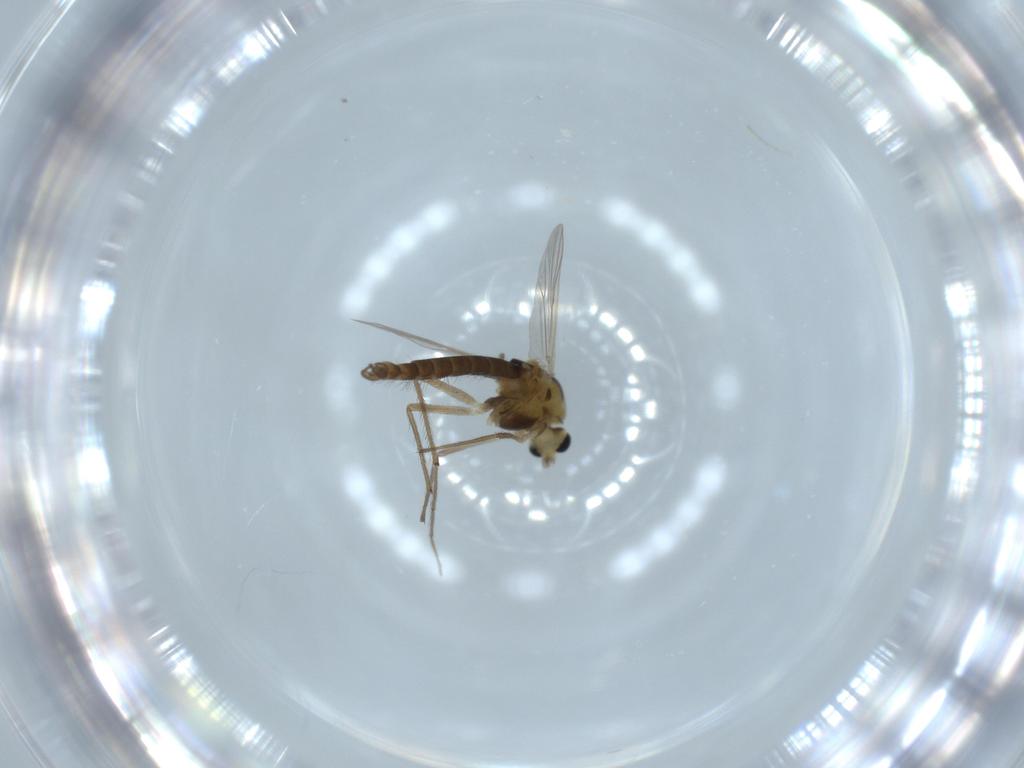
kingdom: Animalia
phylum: Arthropoda
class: Insecta
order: Diptera
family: Chironomidae
